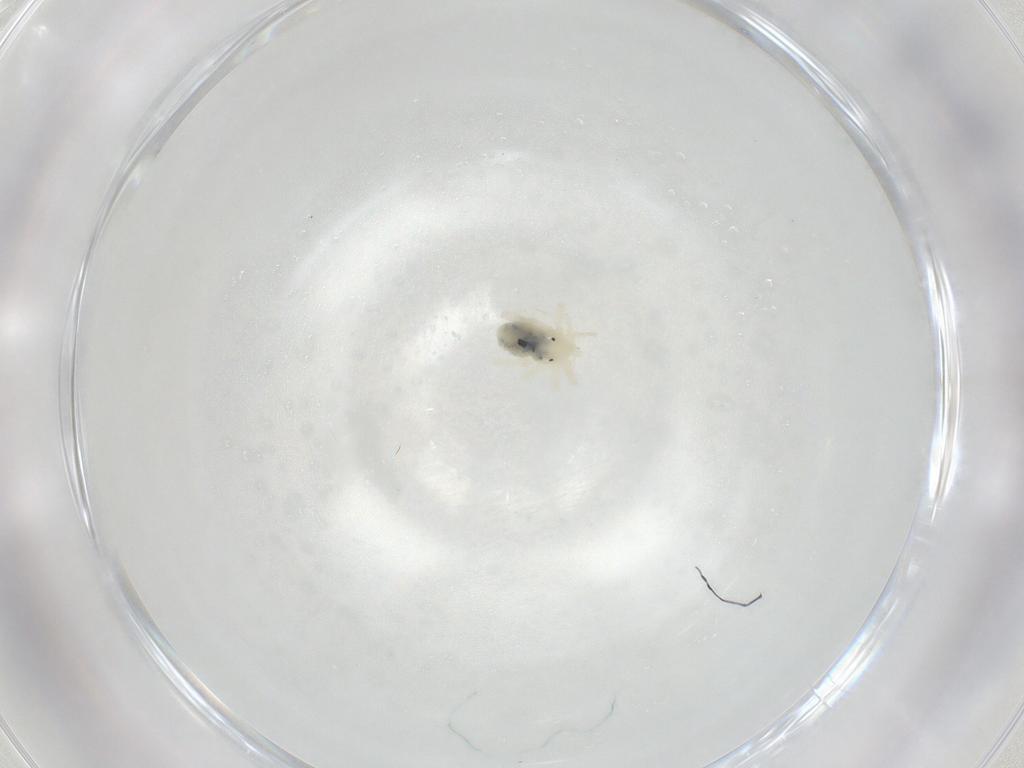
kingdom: Animalia
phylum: Arthropoda
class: Arachnida
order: Trombidiformes
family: Anystidae
